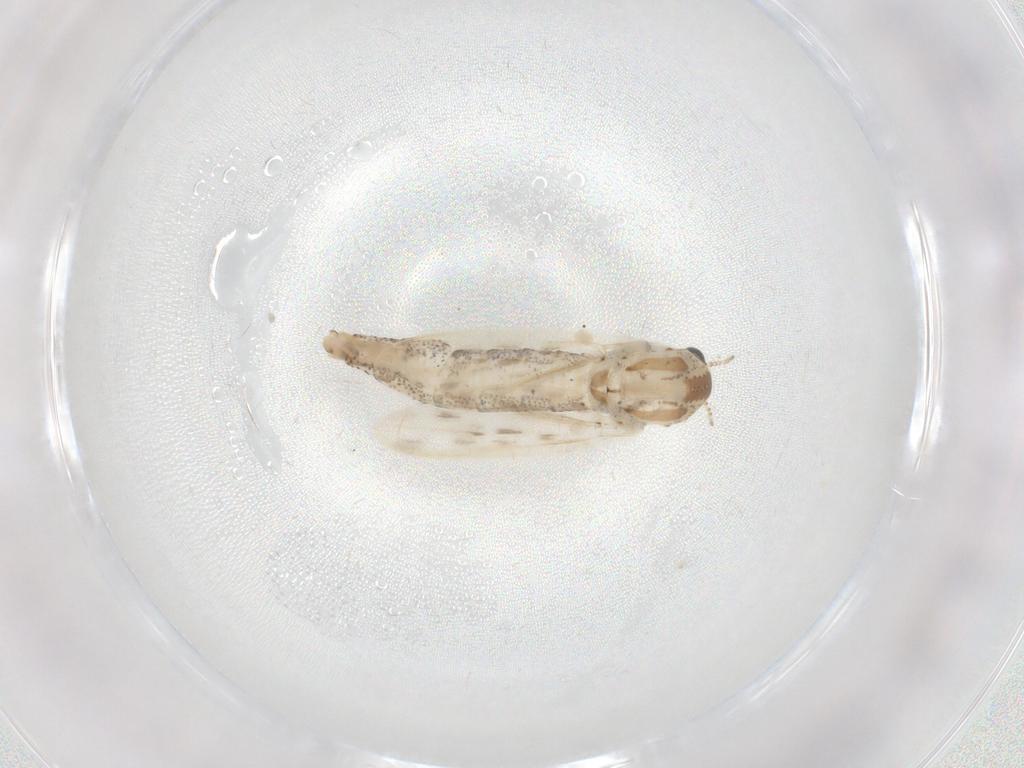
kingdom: Animalia
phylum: Arthropoda
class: Insecta
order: Diptera
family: Chaoboridae
